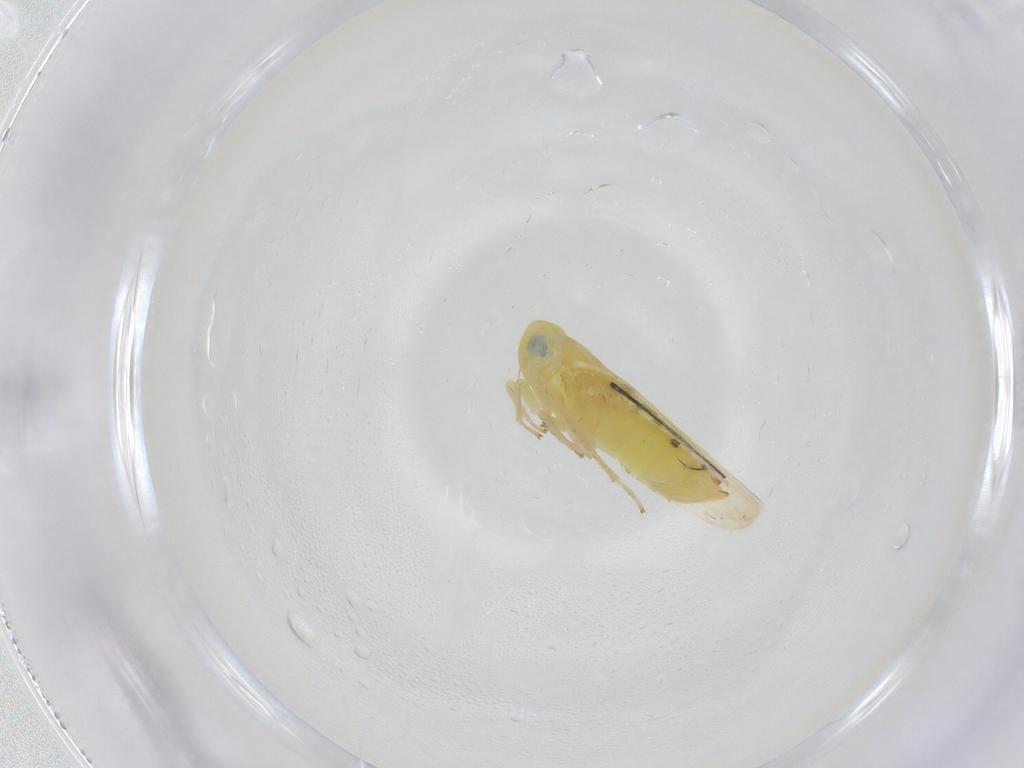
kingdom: Animalia
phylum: Arthropoda
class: Insecta
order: Hemiptera
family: Cicadellidae
